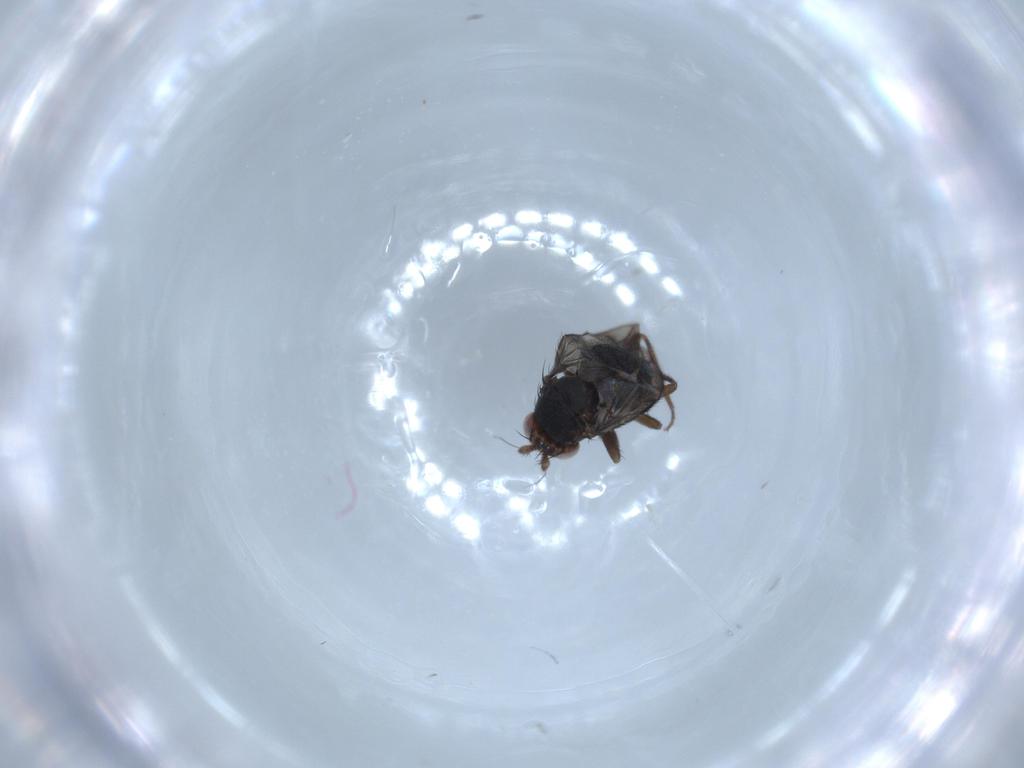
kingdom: Animalia
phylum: Arthropoda
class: Insecta
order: Diptera
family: Sphaeroceridae
